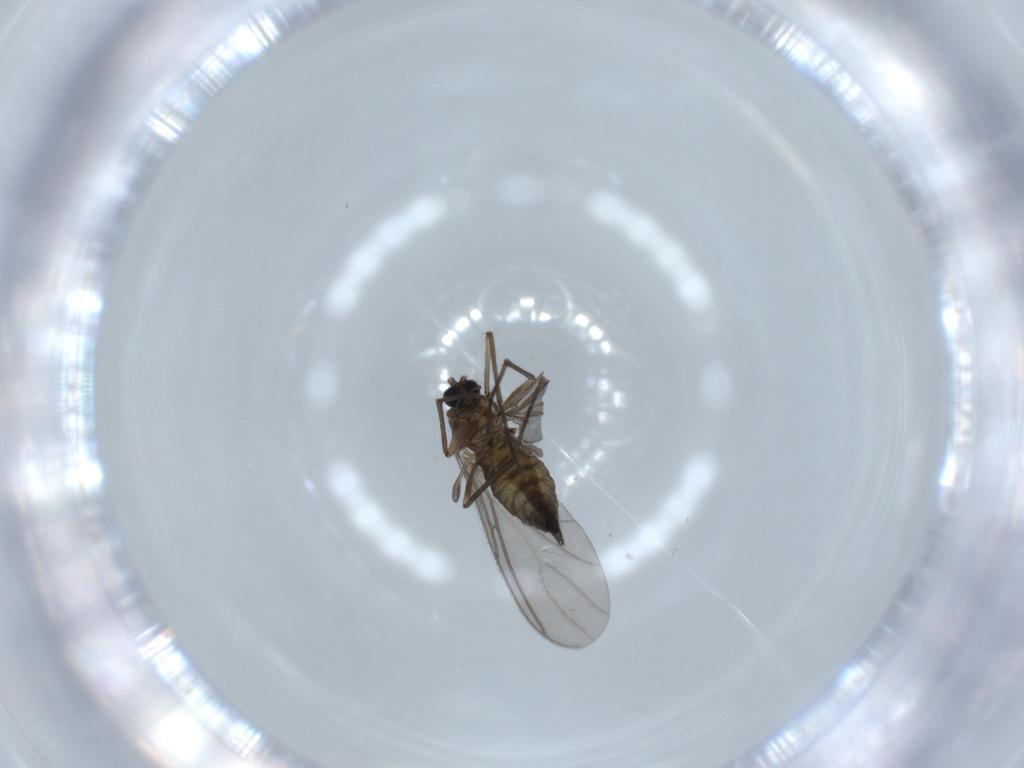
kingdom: Animalia
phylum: Arthropoda
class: Insecta
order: Diptera
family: Sciaridae
